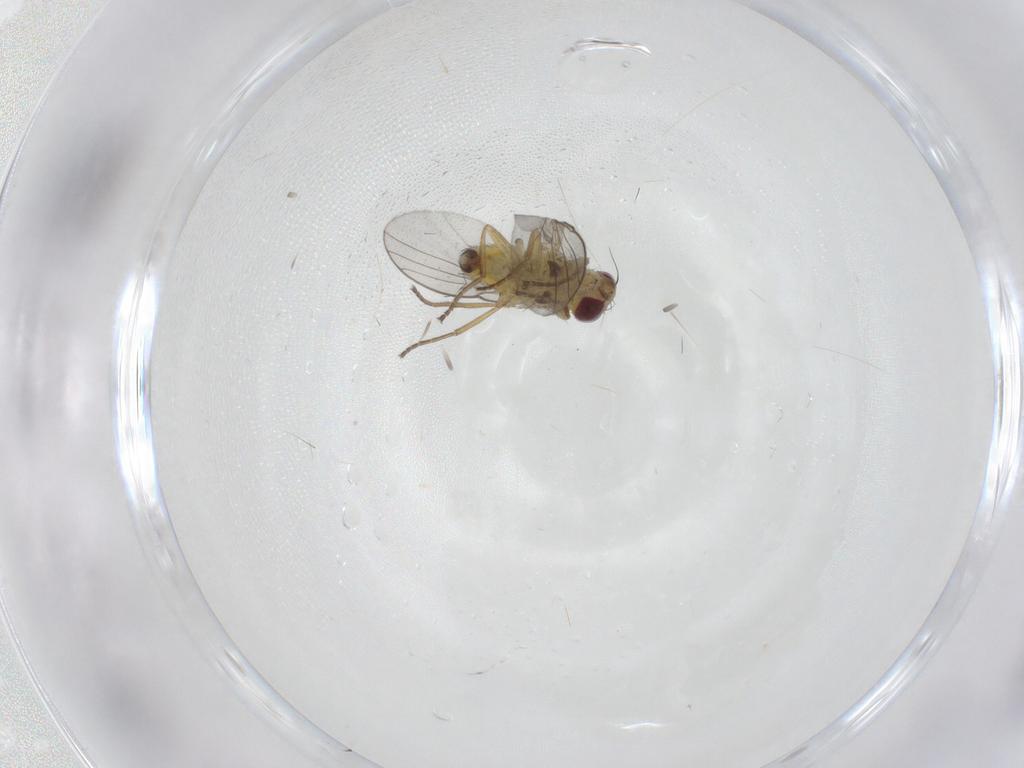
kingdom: Animalia
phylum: Arthropoda
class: Insecta
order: Diptera
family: Agromyzidae
